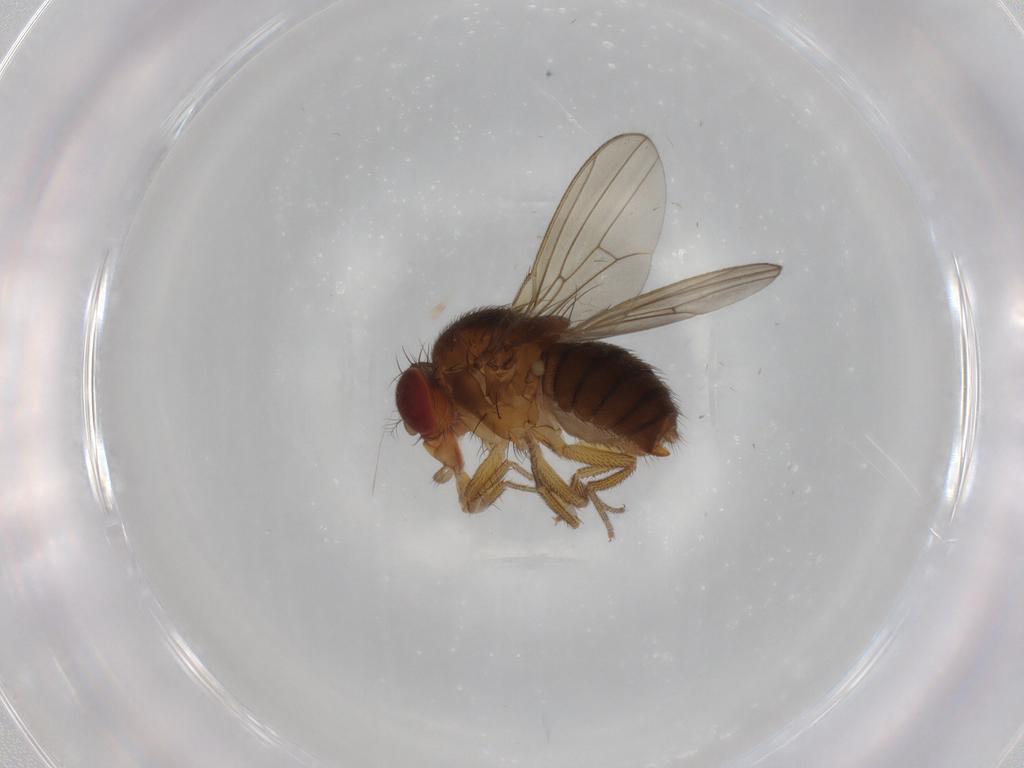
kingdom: Animalia
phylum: Arthropoda
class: Insecta
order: Diptera
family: Drosophilidae
